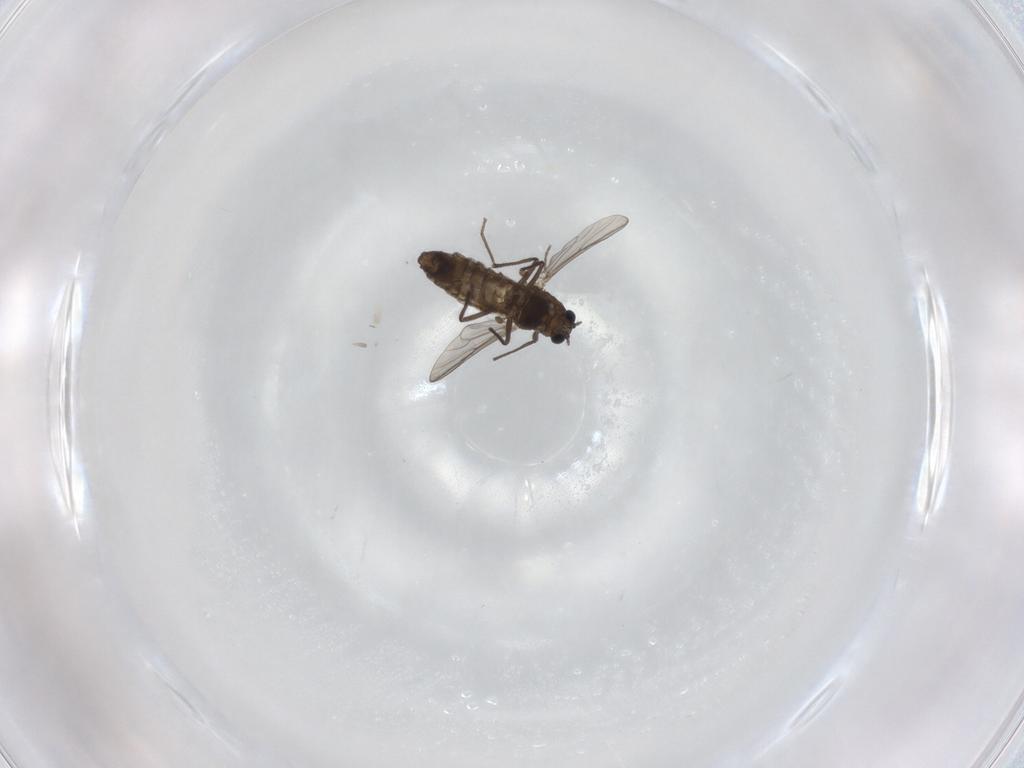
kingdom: Animalia
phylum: Arthropoda
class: Insecta
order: Diptera
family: Chironomidae
